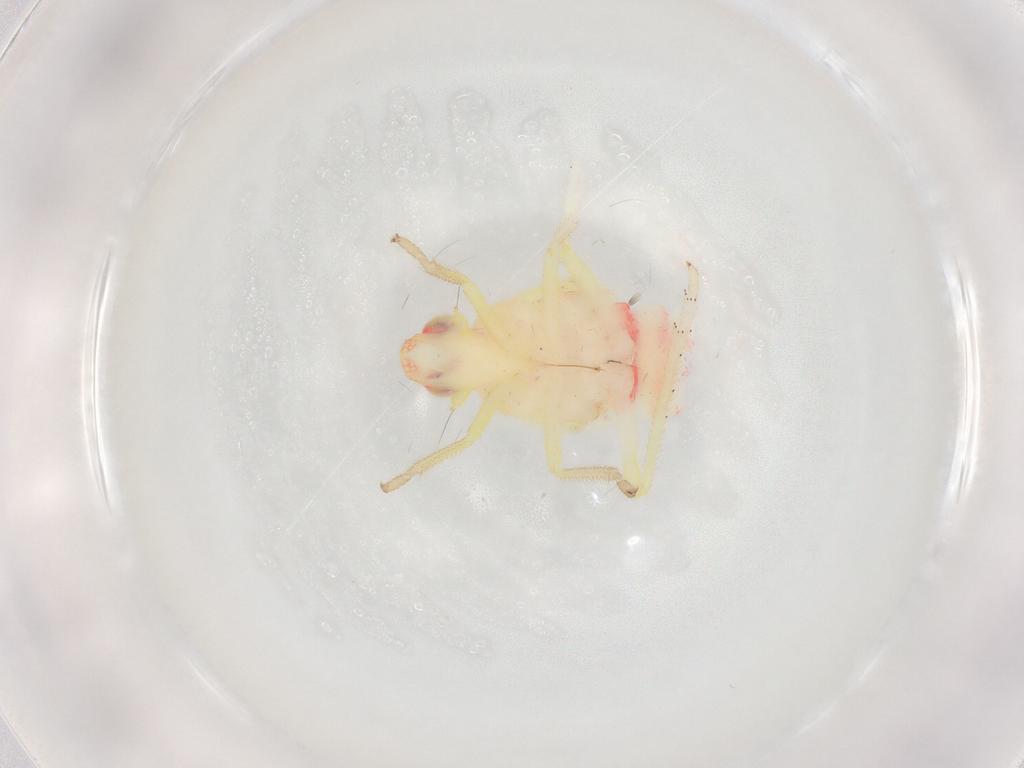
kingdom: Animalia
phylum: Arthropoda
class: Insecta
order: Hemiptera
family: Tropiduchidae
